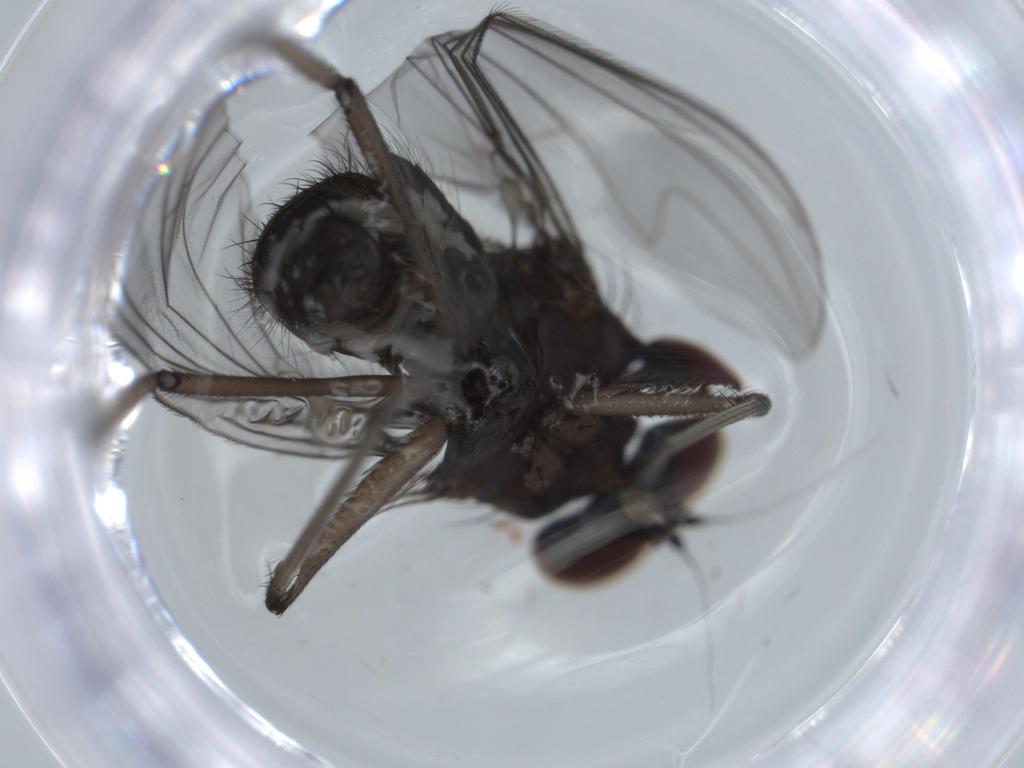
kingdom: Animalia
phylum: Arthropoda
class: Insecta
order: Diptera
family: Dolichopodidae
